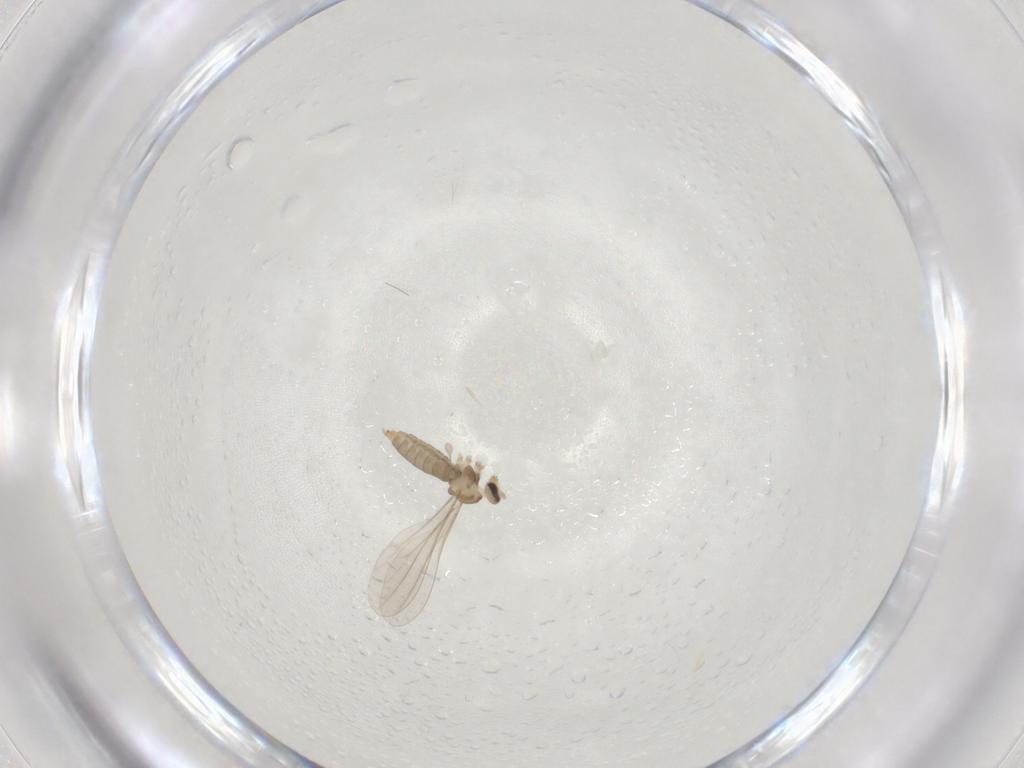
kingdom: Animalia
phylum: Arthropoda
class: Insecta
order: Diptera
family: Cecidomyiidae
